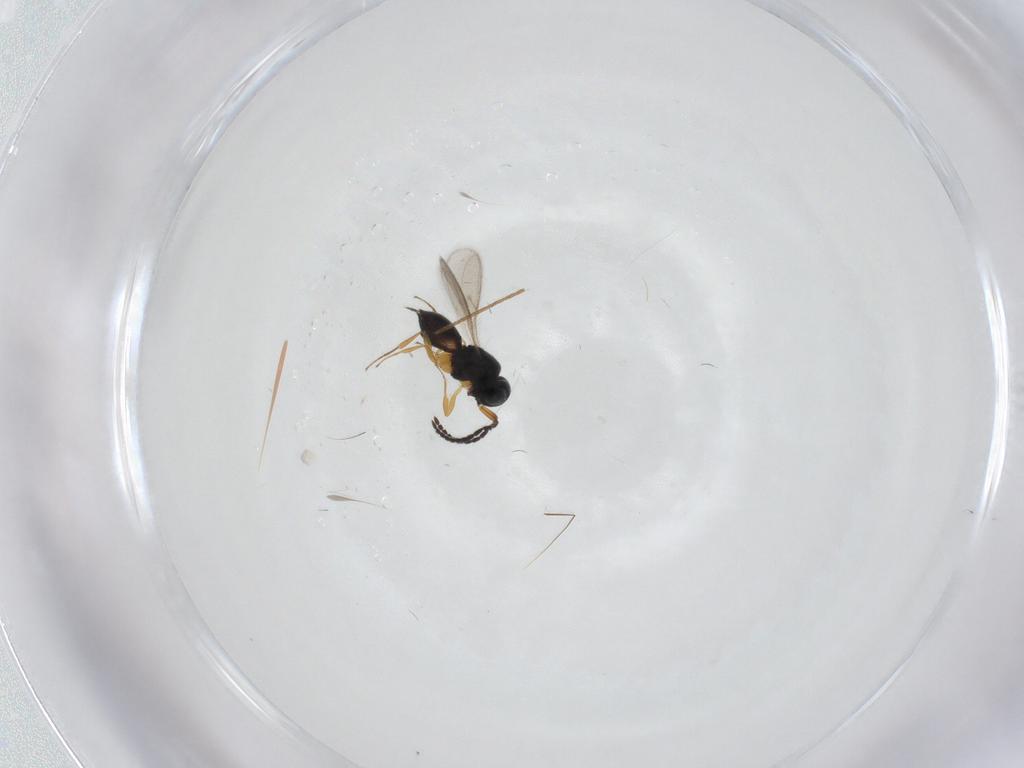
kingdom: Animalia
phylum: Arthropoda
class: Insecta
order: Hymenoptera
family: Scelionidae
